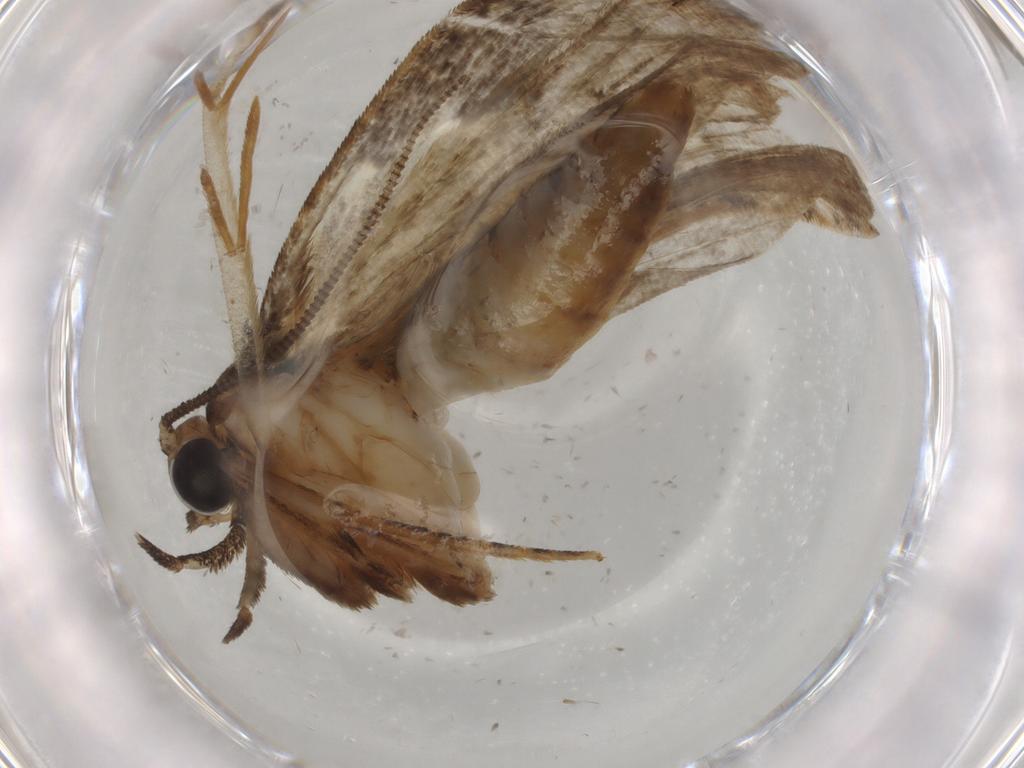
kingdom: Animalia
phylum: Arthropoda
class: Insecta
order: Lepidoptera
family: Tineidae
